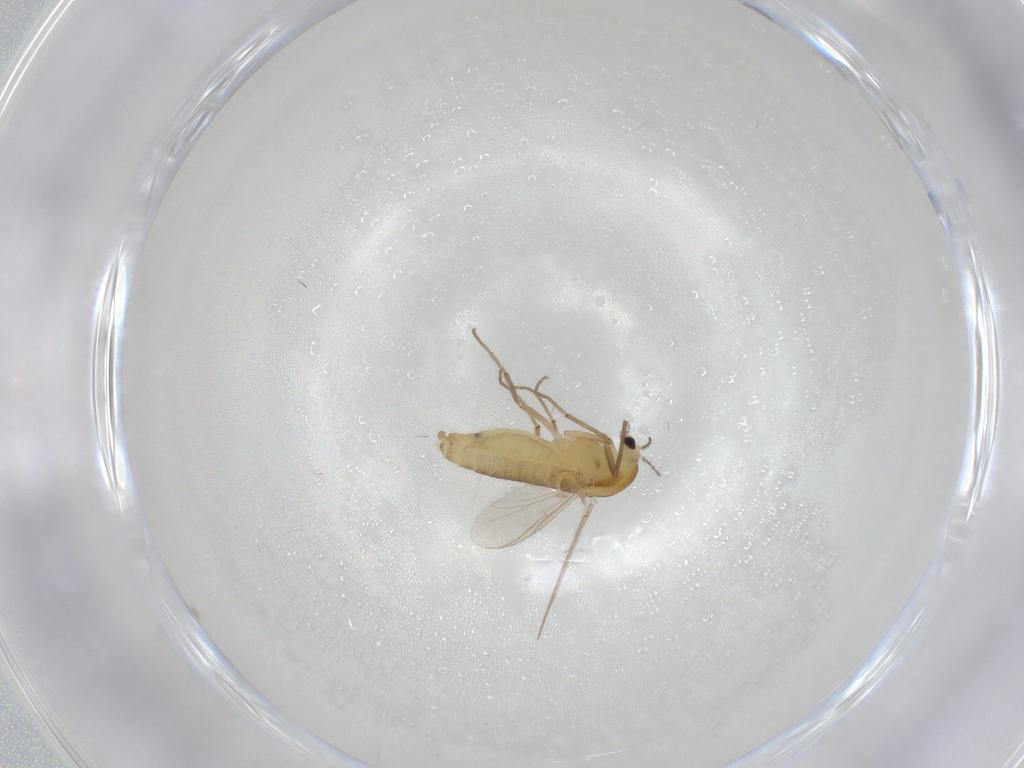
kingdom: Animalia
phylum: Arthropoda
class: Insecta
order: Diptera
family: Chironomidae
